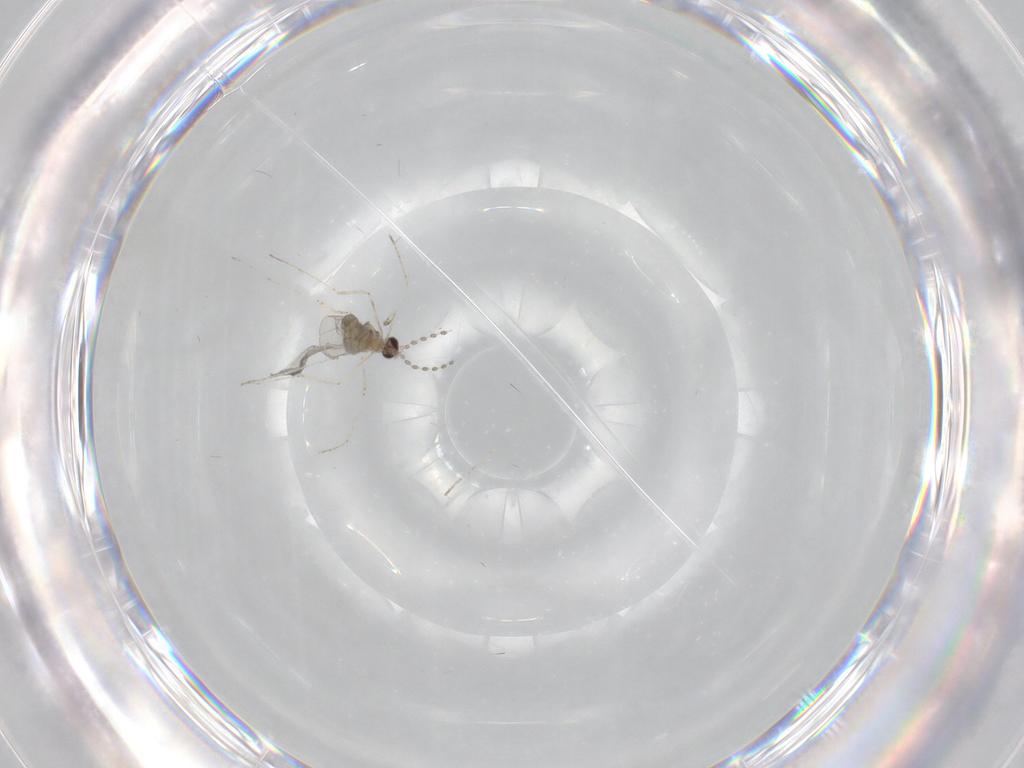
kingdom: Animalia
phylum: Arthropoda
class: Insecta
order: Diptera
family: Cecidomyiidae
